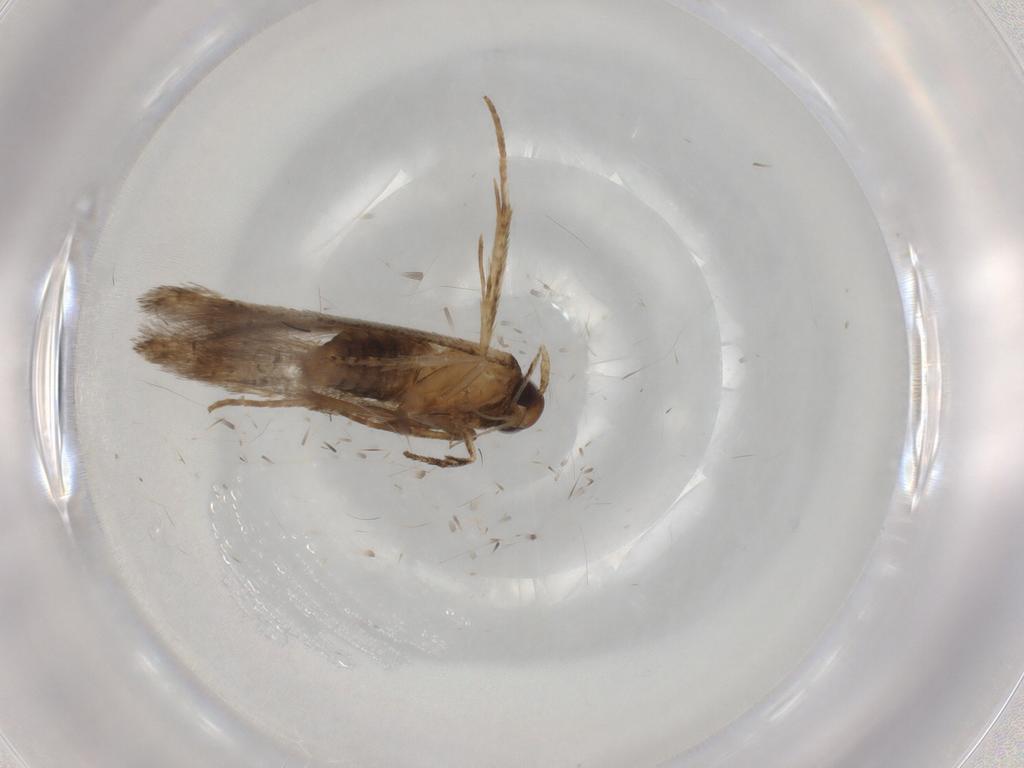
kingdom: Animalia
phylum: Arthropoda
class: Insecta
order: Lepidoptera
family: Cosmopterigidae
